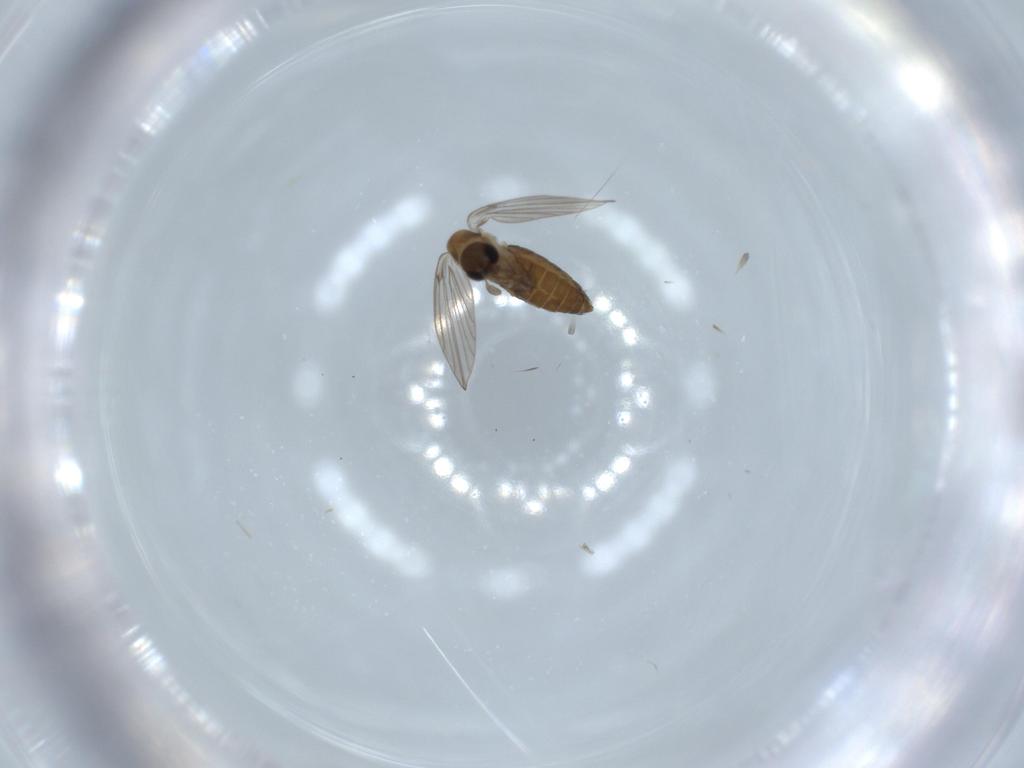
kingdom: Animalia
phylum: Arthropoda
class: Insecta
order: Diptera
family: Psychodidae
